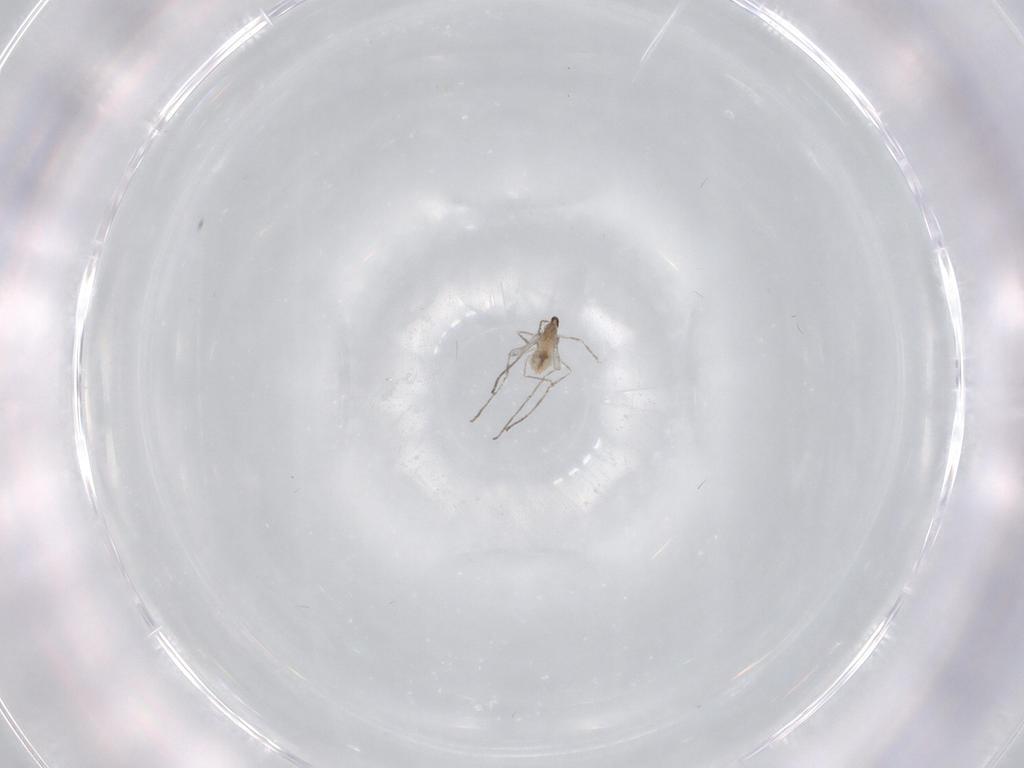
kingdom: Animalia
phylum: Arthropoda
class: Insecta
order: Diptera
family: Cecidomyiidae
